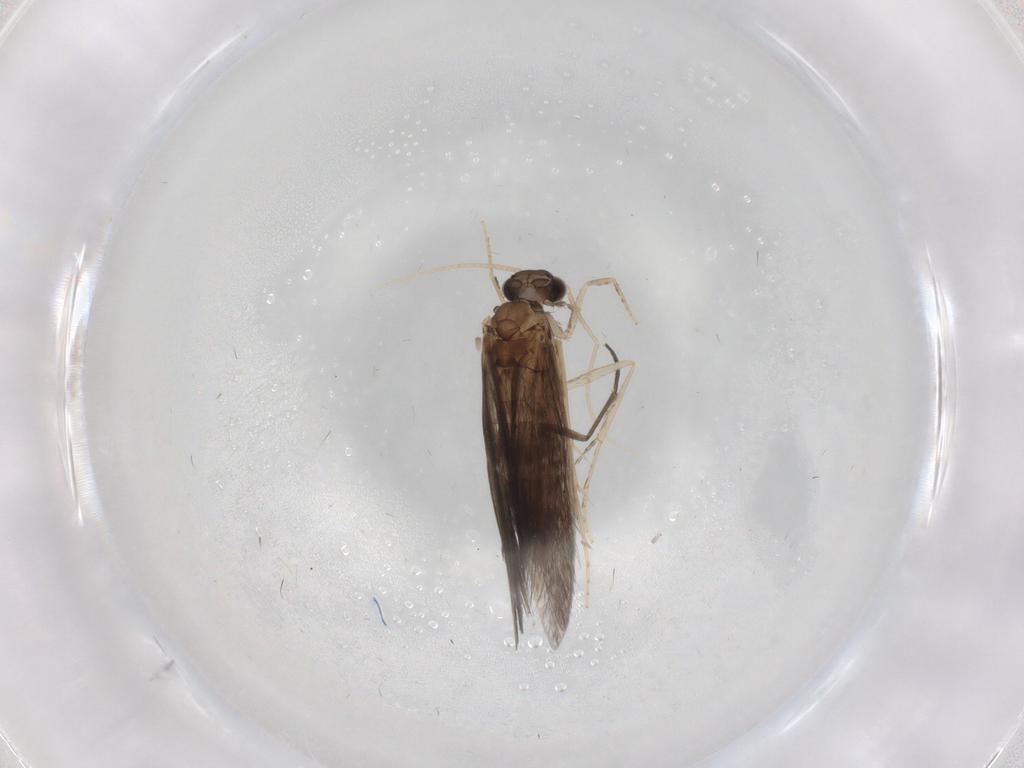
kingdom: Animalia
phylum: Arthropoda
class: Insecta
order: Trichoptera
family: Hydroptilidae
